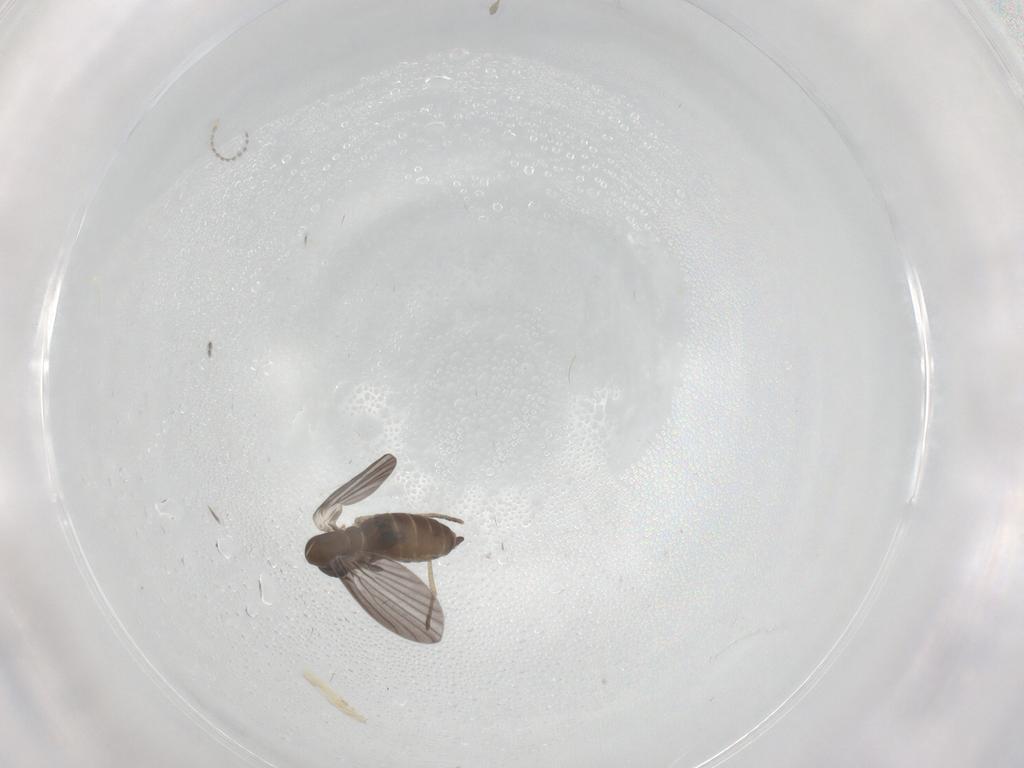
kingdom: Animalia
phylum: Arthropoda
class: Insecta
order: Diptera
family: Cecidomyiidae
